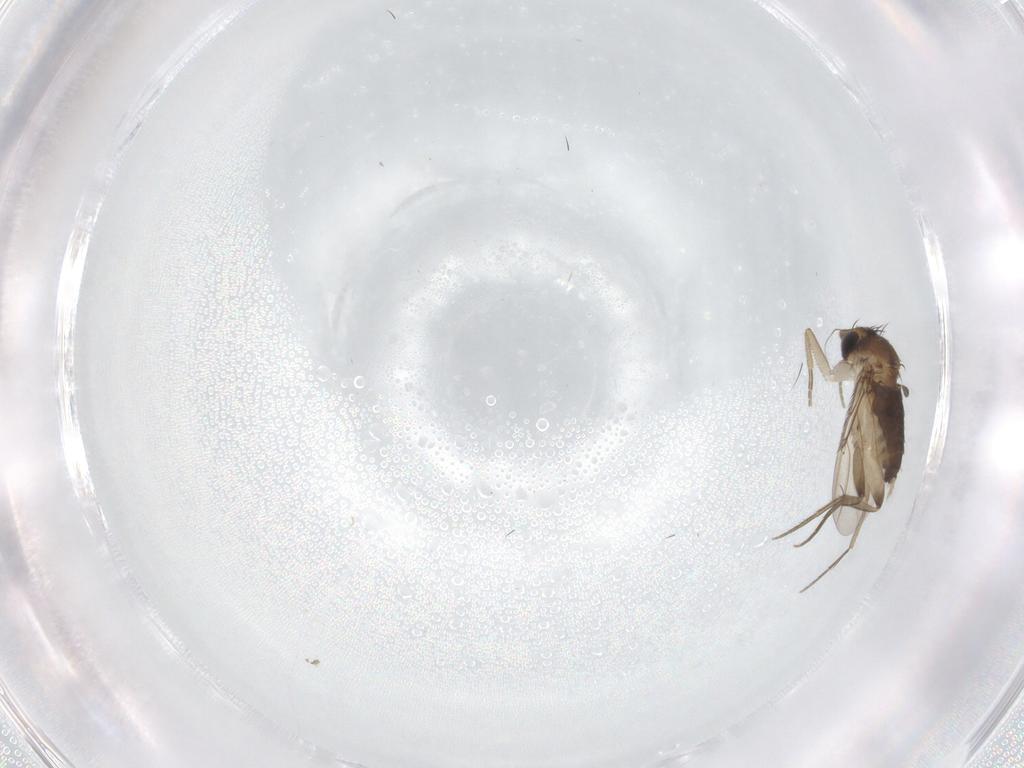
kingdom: Animalia
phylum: Arthropoda
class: Insecta
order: Diptera
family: Phoridae
